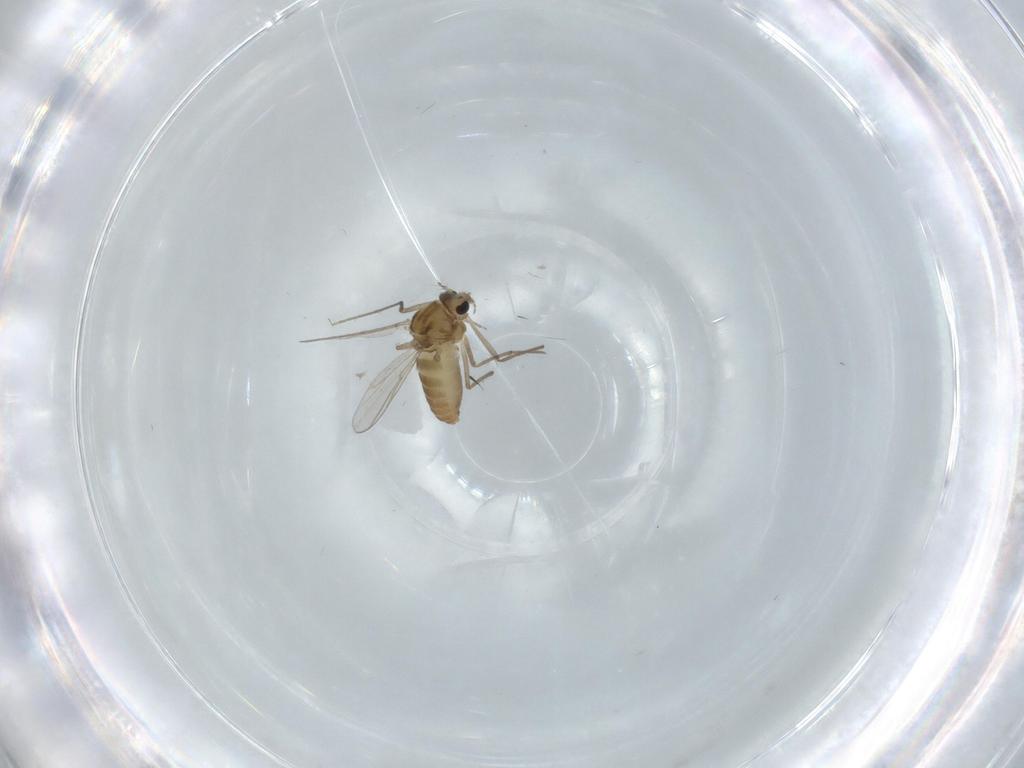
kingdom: Animalia
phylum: Arthropoda
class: Insecta
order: Diptera
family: Chironomidae
